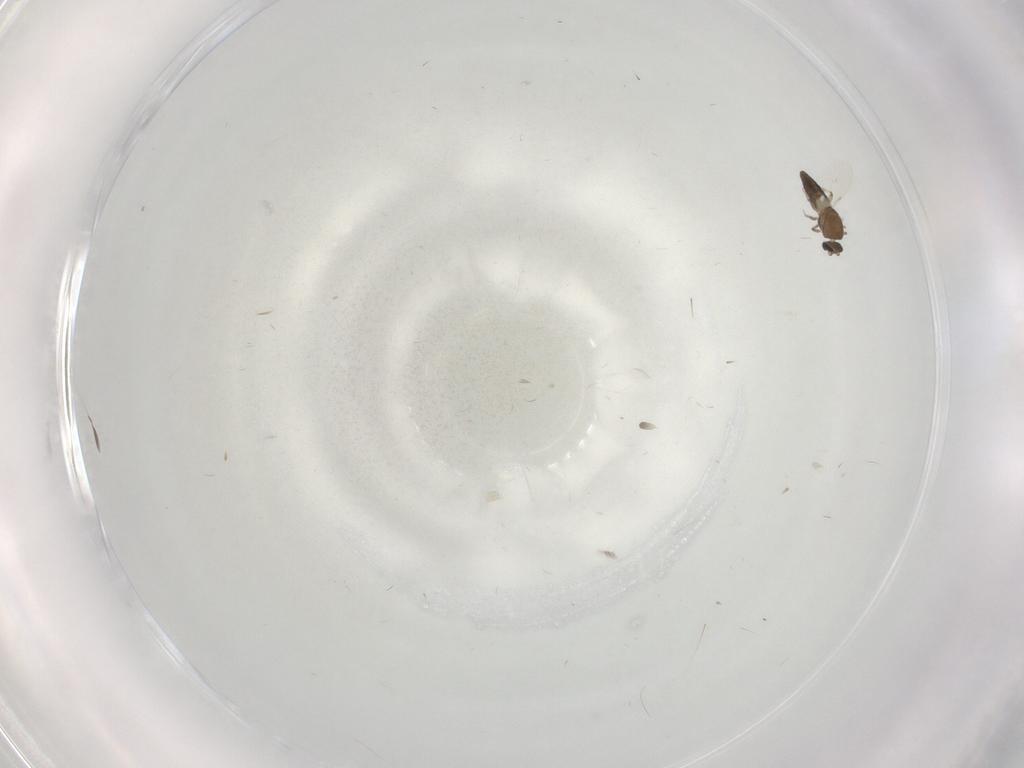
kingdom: Animalia
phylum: Arthropoda
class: Insecta
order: Diptera
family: Ceratopogonidae
